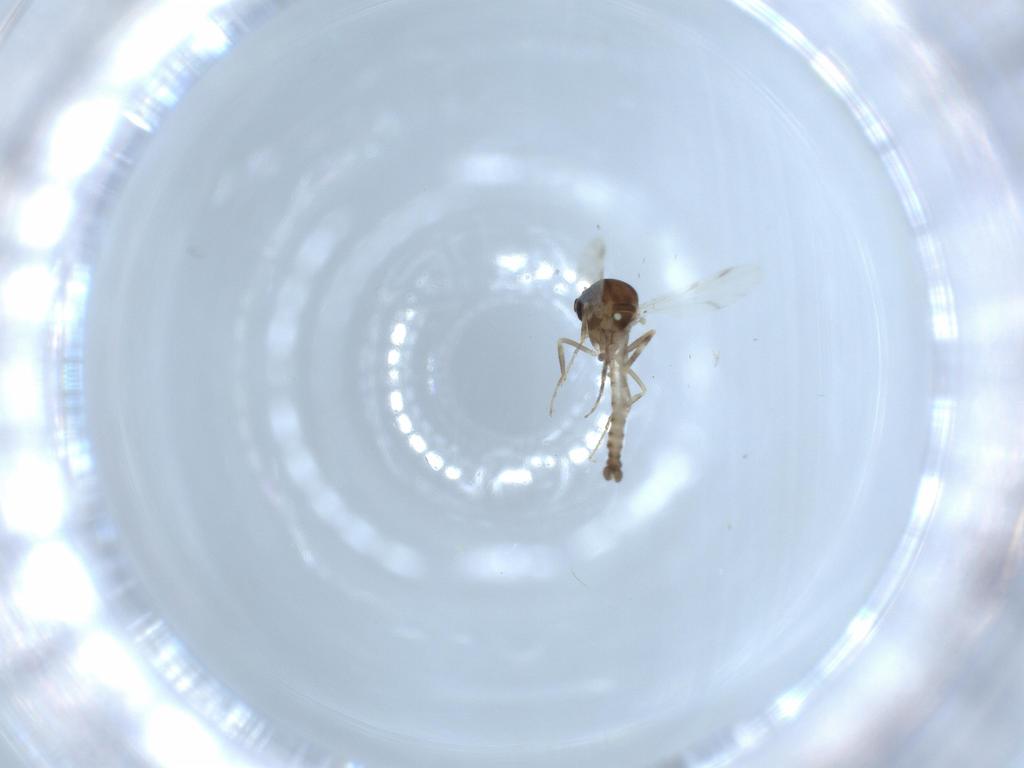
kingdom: Animalia
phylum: Arthropoda
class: Insecta
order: Diptera
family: Ceratopogonidae
